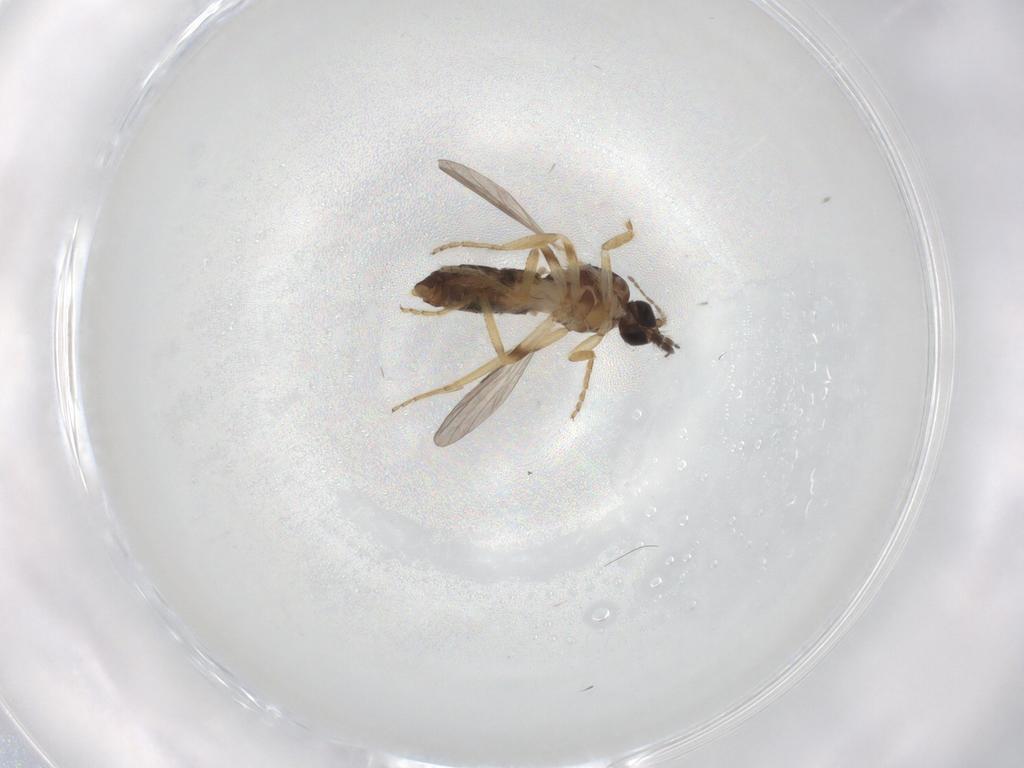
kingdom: Animalia
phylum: Arthropoda
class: Insecta
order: Diptera
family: Ceratopogonidae
